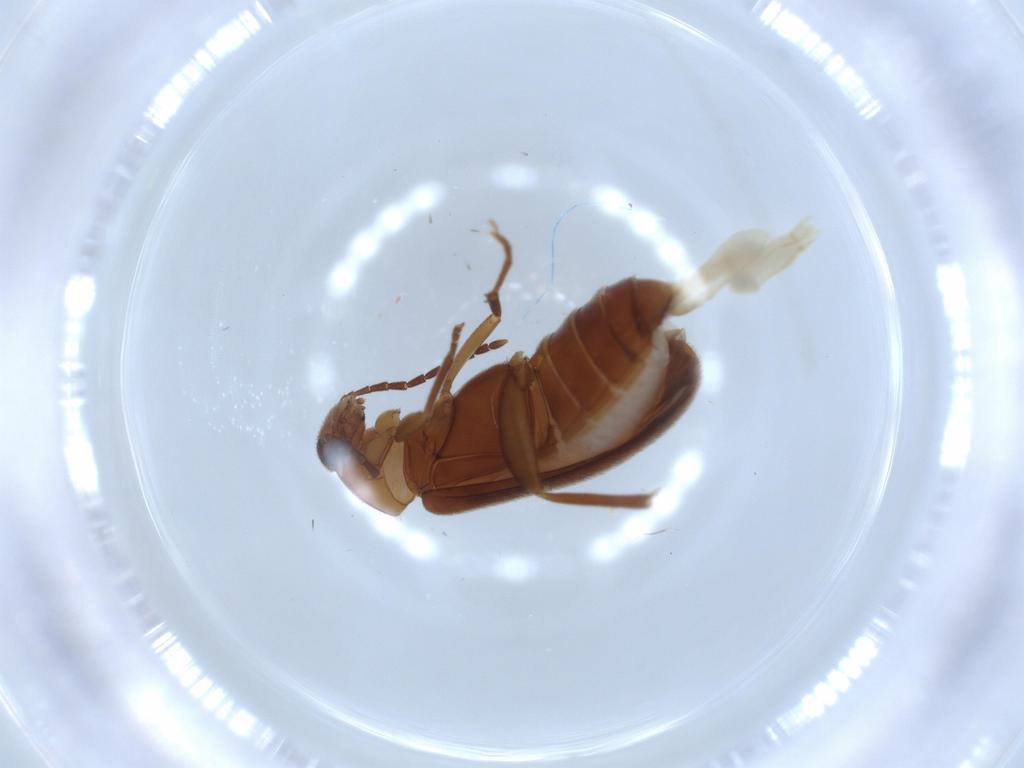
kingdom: Animalia
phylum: Arthropoda
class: Insecta
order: Coleoptera
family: Scraptiidae
